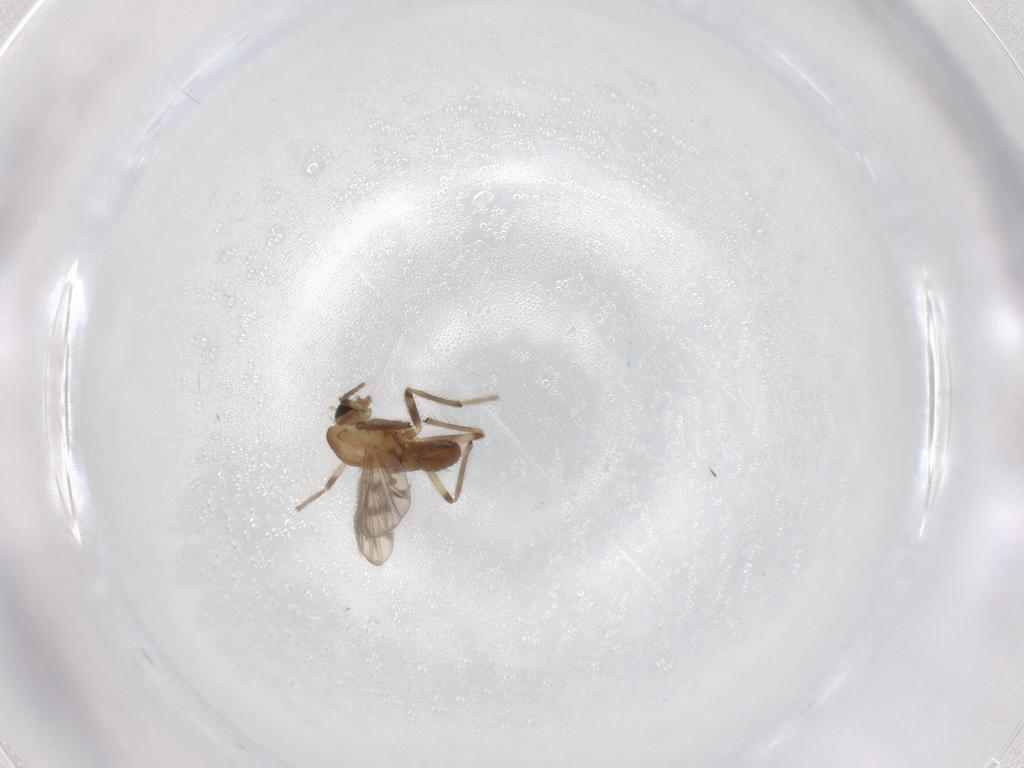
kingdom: Animalia
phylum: Arthropoda
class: Insecta
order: Diptera
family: Chironomidae
